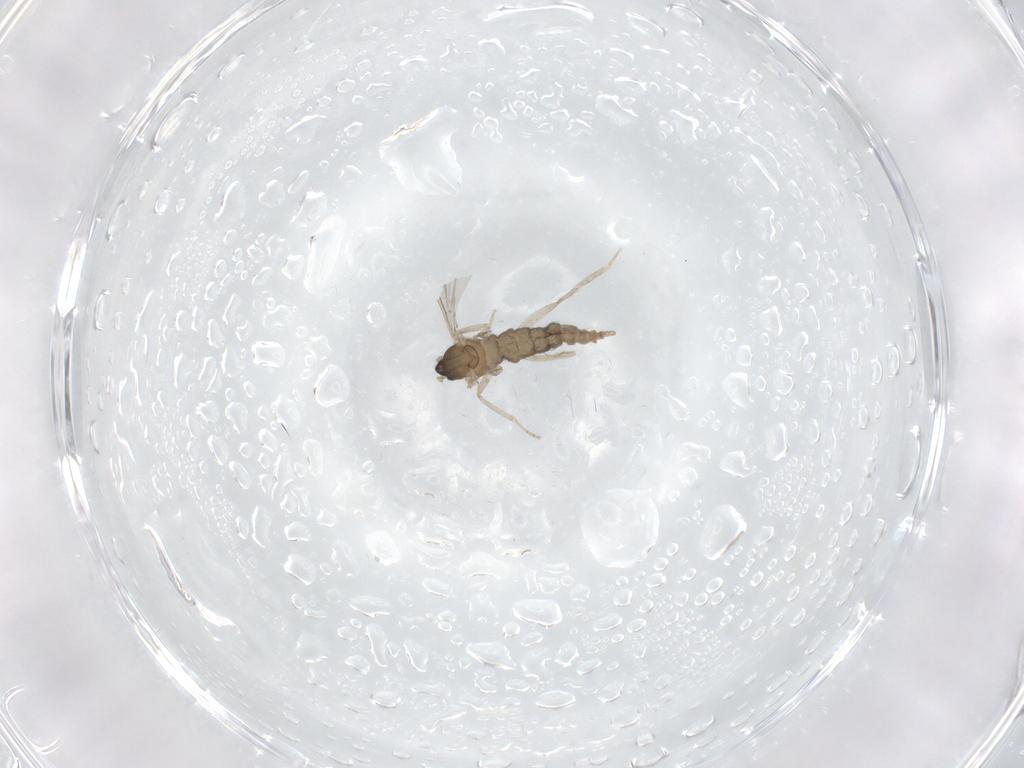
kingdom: Animalia
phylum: Arthropoda
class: Insecta
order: Diptera
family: Cecidomyiidae
